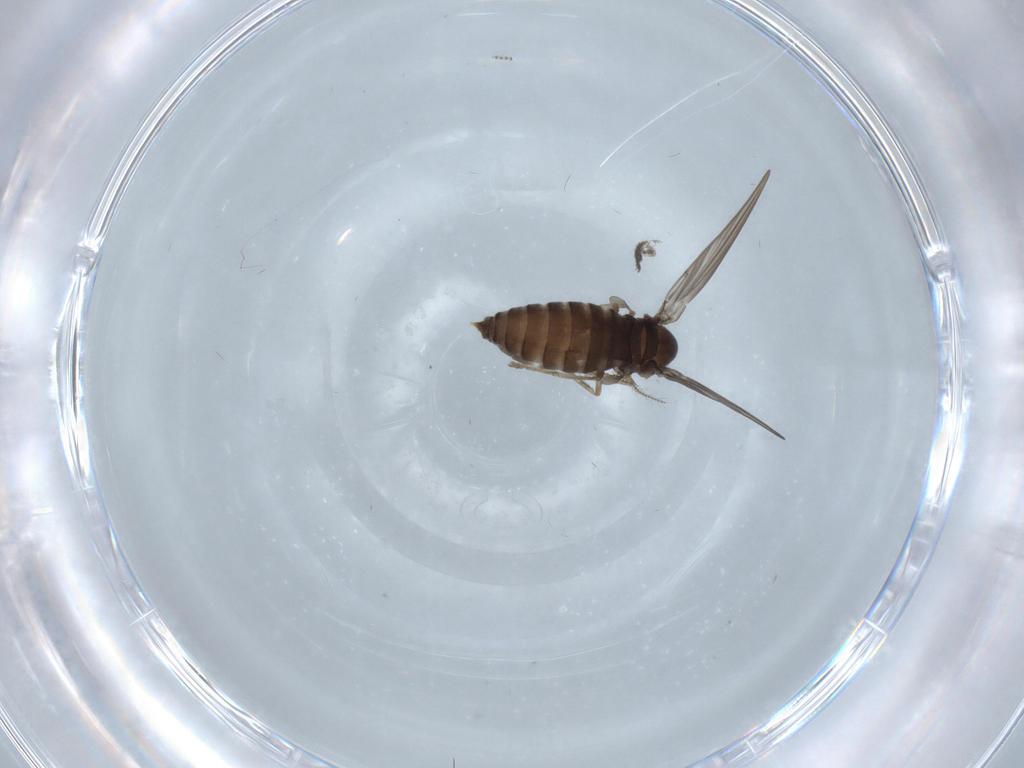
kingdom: Animalia
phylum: Arthropoda
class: Insecta
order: Diptera
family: Psychodidae
